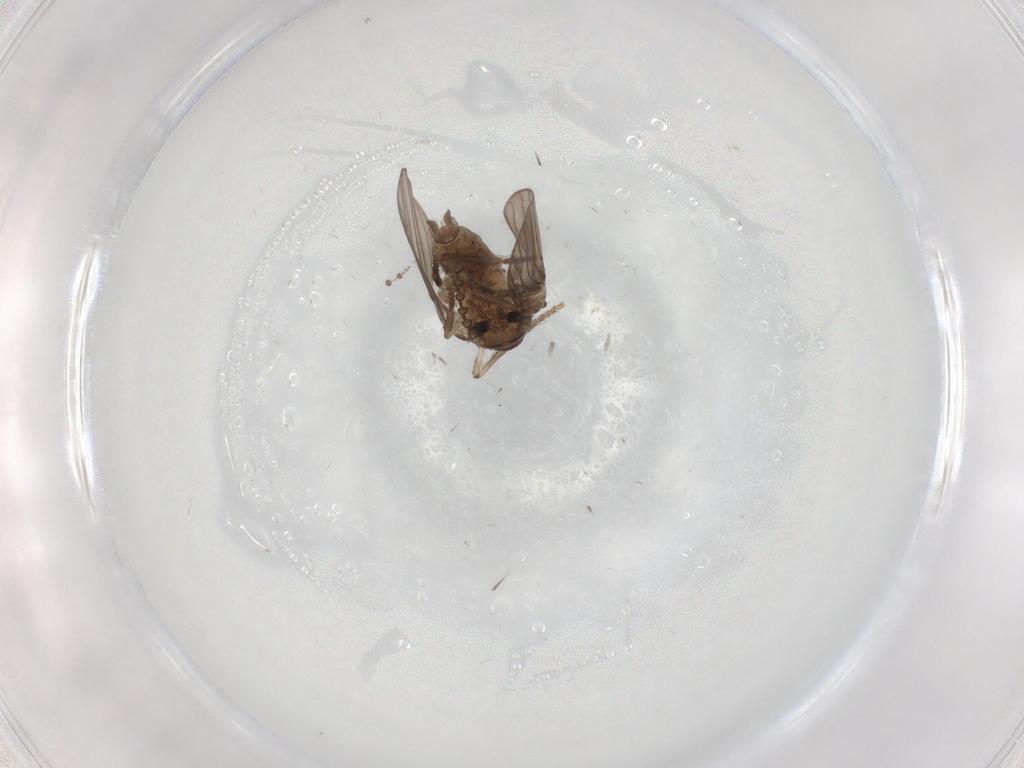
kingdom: Animalia
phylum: Arthropoda
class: Insecta
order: Diptera
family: Psychodidae
